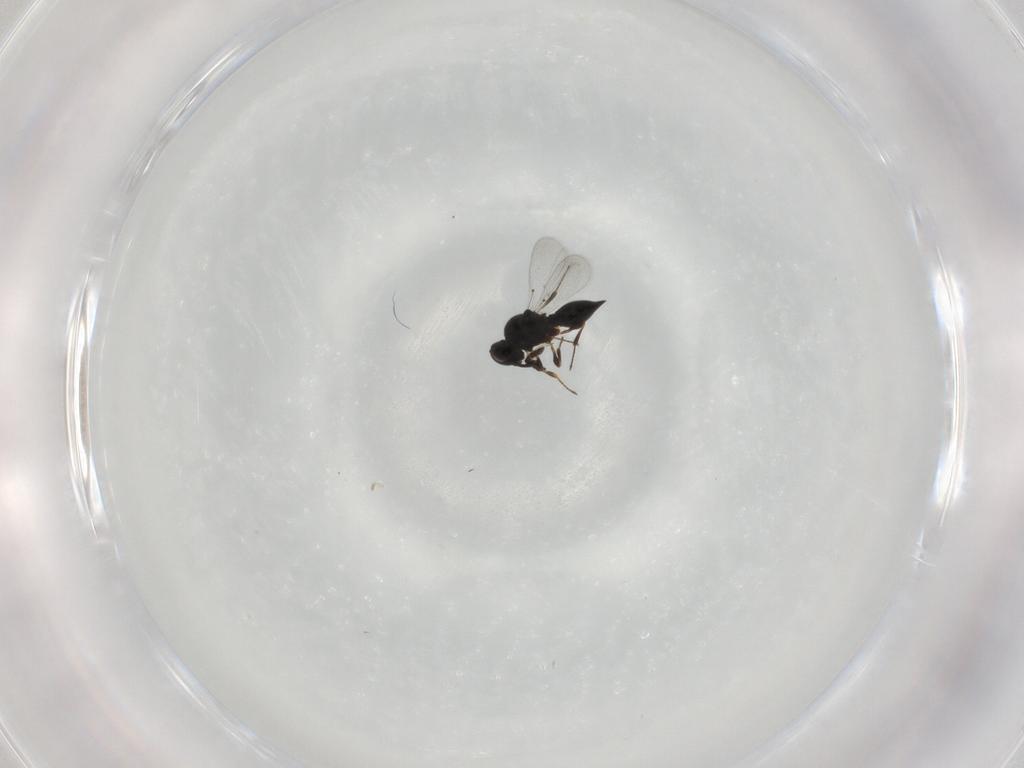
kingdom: Animalia
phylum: Arthropoda
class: Insecta
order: Hymenoptera
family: Platygastridae
